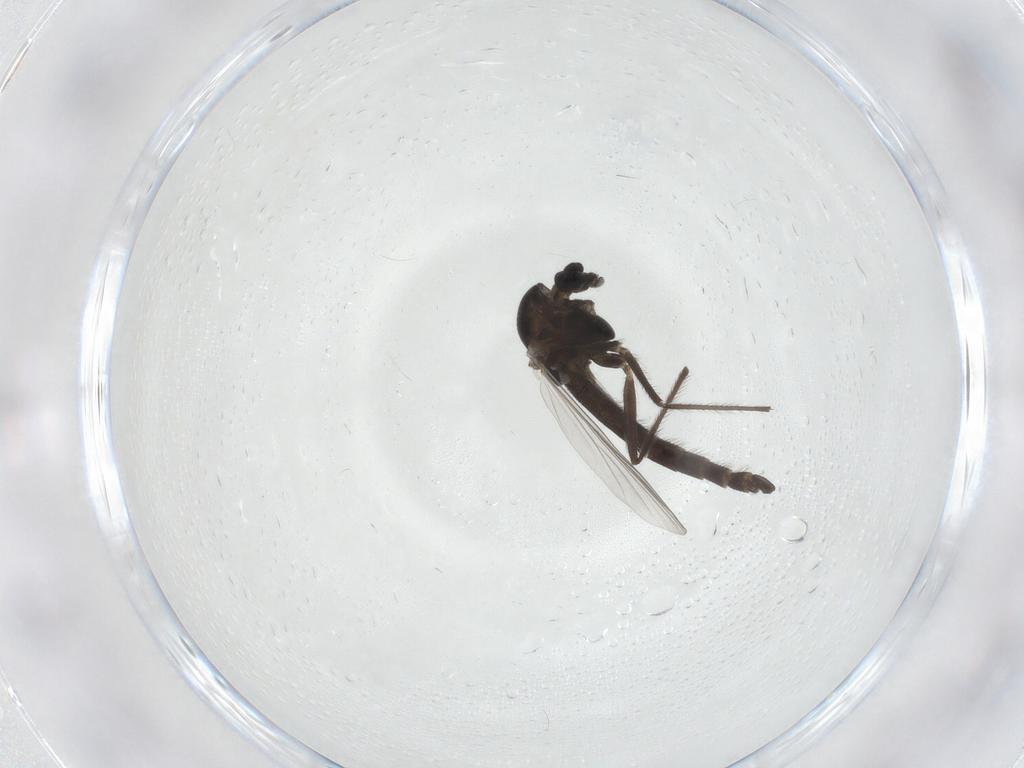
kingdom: Animalia
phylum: Arthropoda
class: Insecta
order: Diptera
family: Chironomidae
